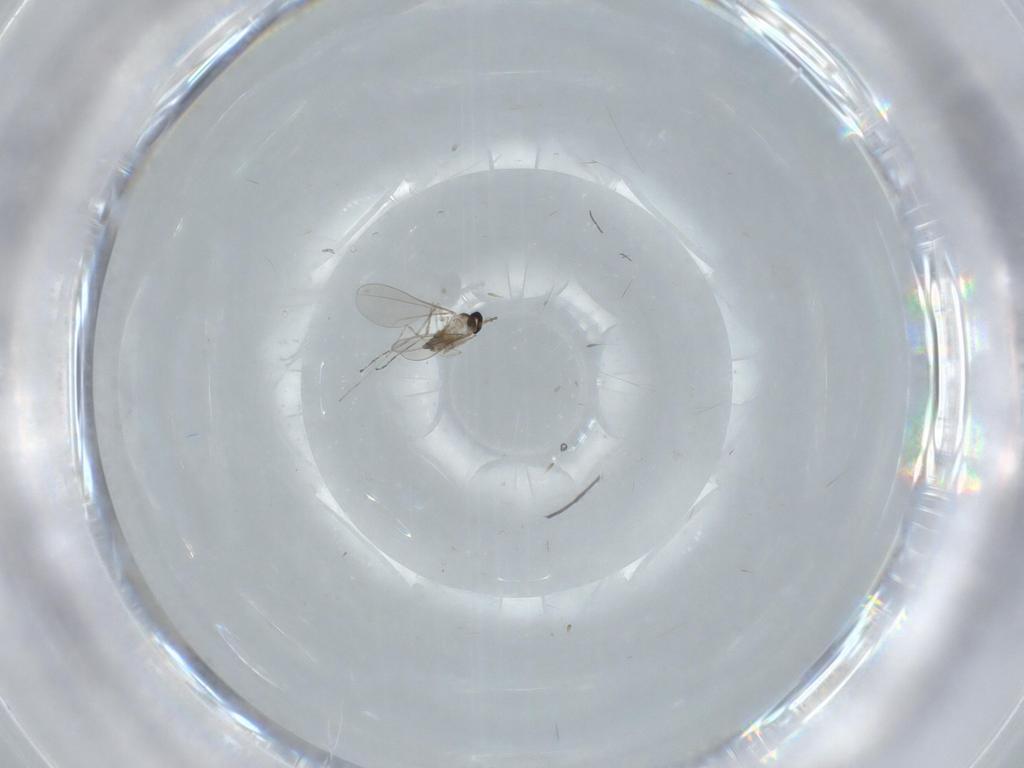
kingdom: Animalia
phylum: Arthropoda
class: Insecta
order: Diptera
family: Cecidomyiidae
